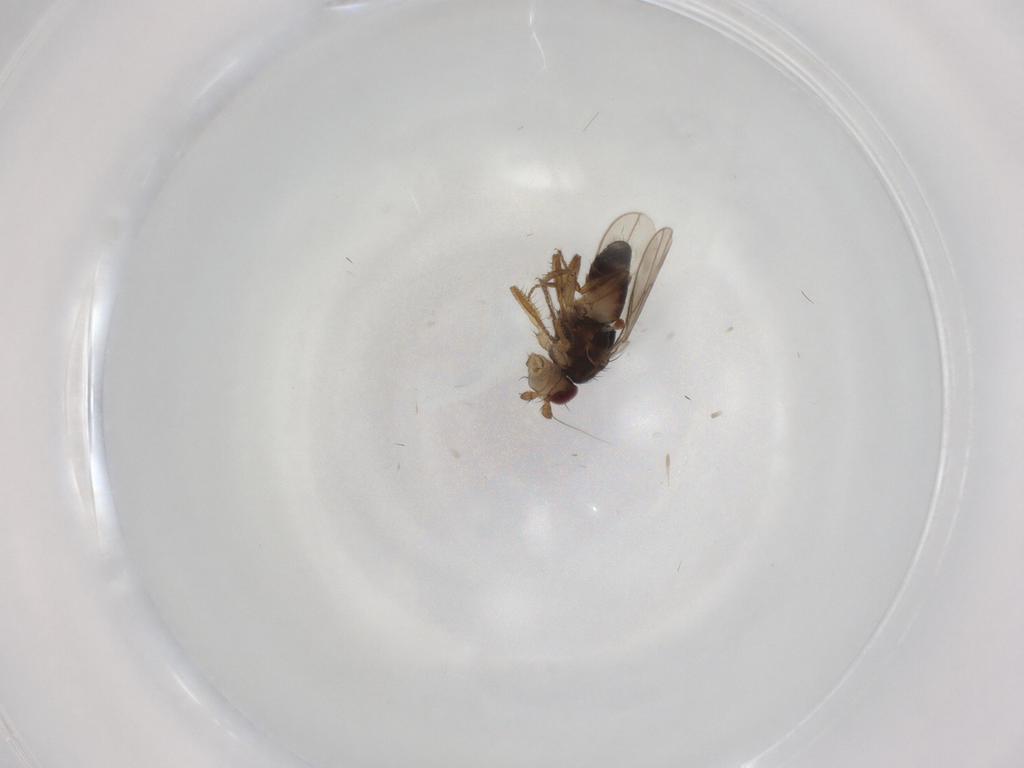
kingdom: Animalia
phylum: Arthropoda
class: Insecta
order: Diptera
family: Sphaeroceridae
